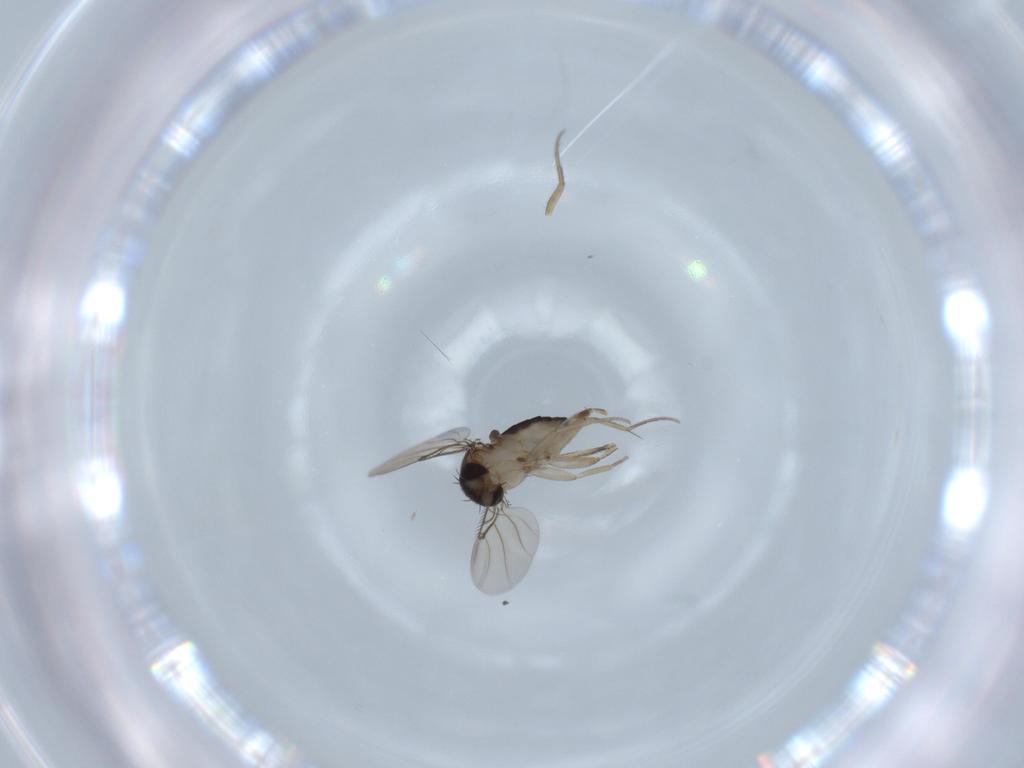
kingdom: Animalia
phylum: Arthropoda
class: Insecta
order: Diptera
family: Phoridae
